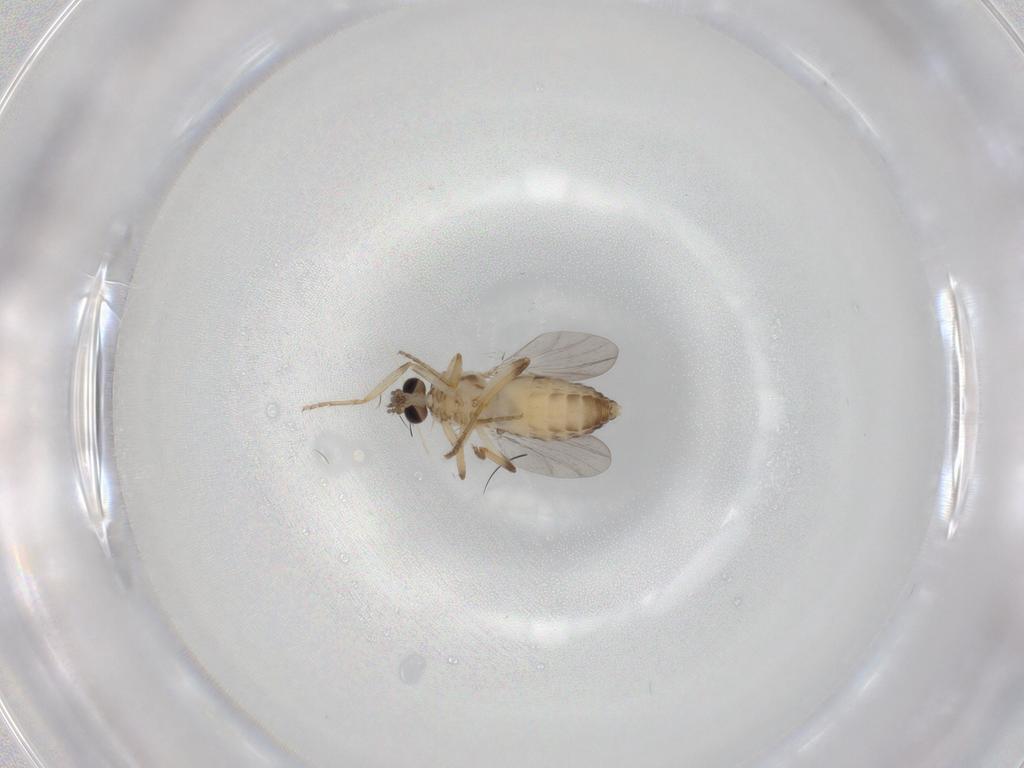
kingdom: Animalia
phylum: Arthropoda
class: Insecta
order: Diptera
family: Ceratopogonidae
